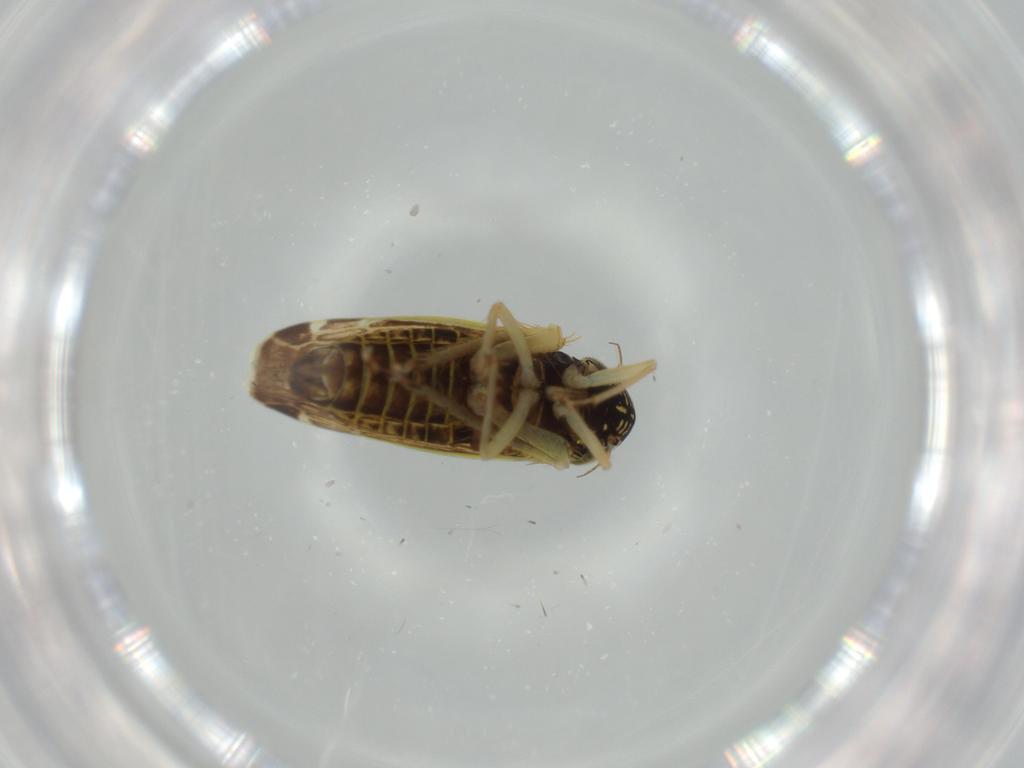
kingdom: Animalia
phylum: Arthropoda
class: Insecta
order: Hemiptera
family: Cicadellidae
